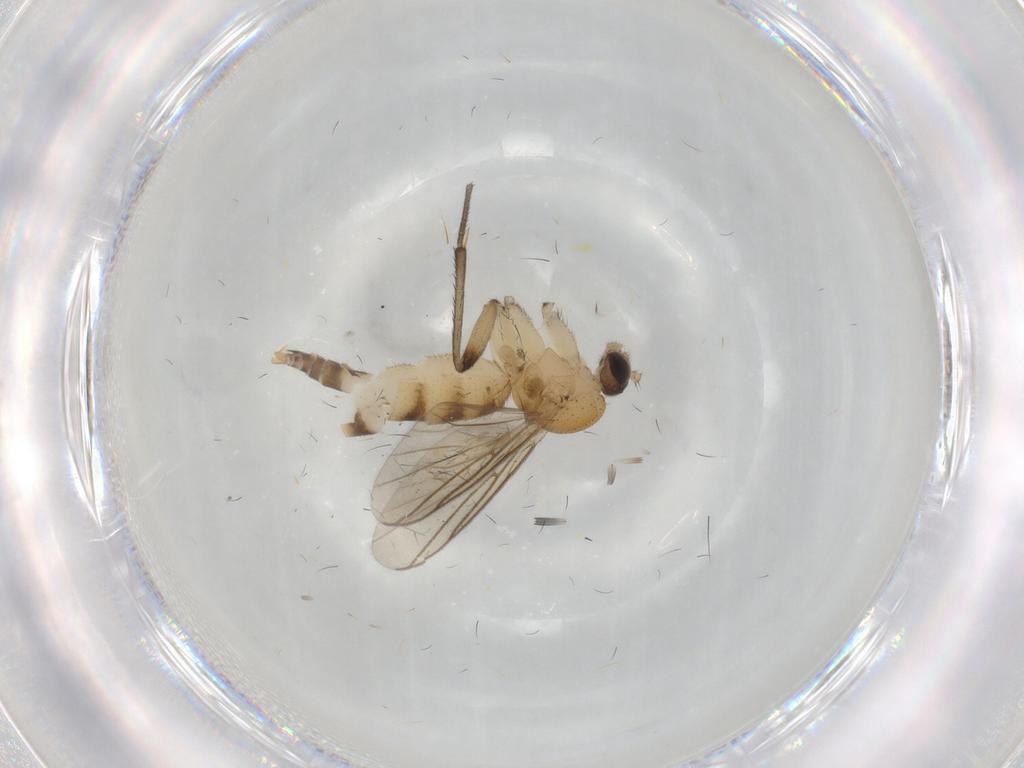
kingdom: Animalia
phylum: Arthropoda
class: Insecta
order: Diptera
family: Mycetophilidae
